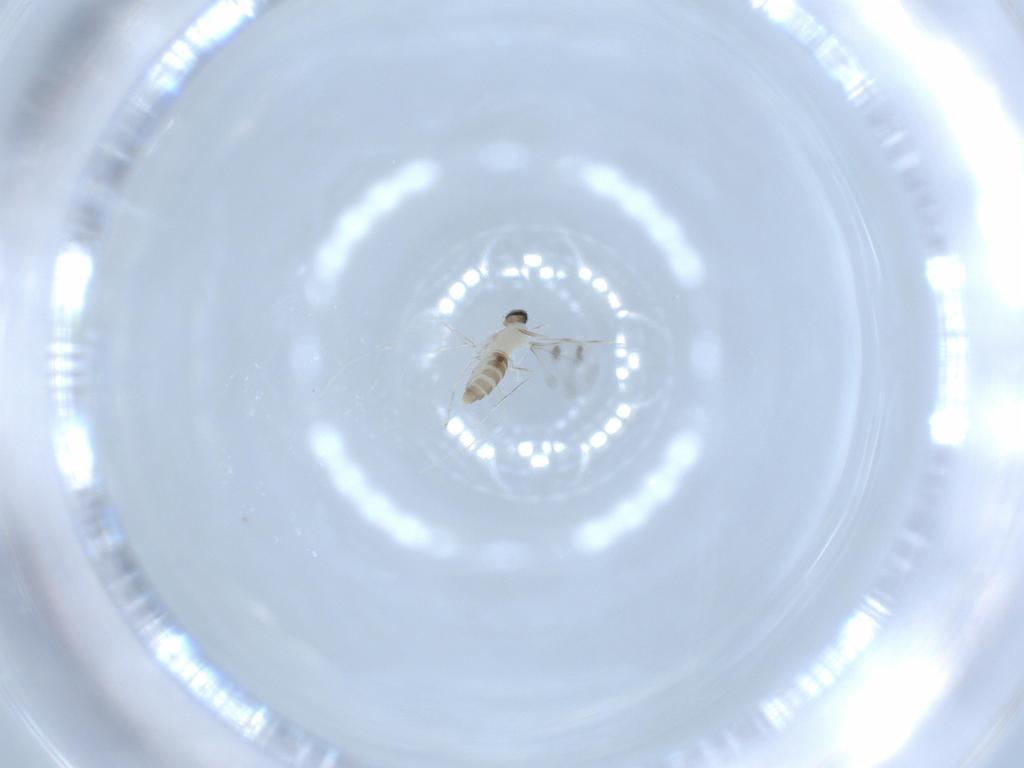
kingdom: Animalia
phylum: Arthropoda
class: Insecta
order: Diptera
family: Cecidomyiidae
